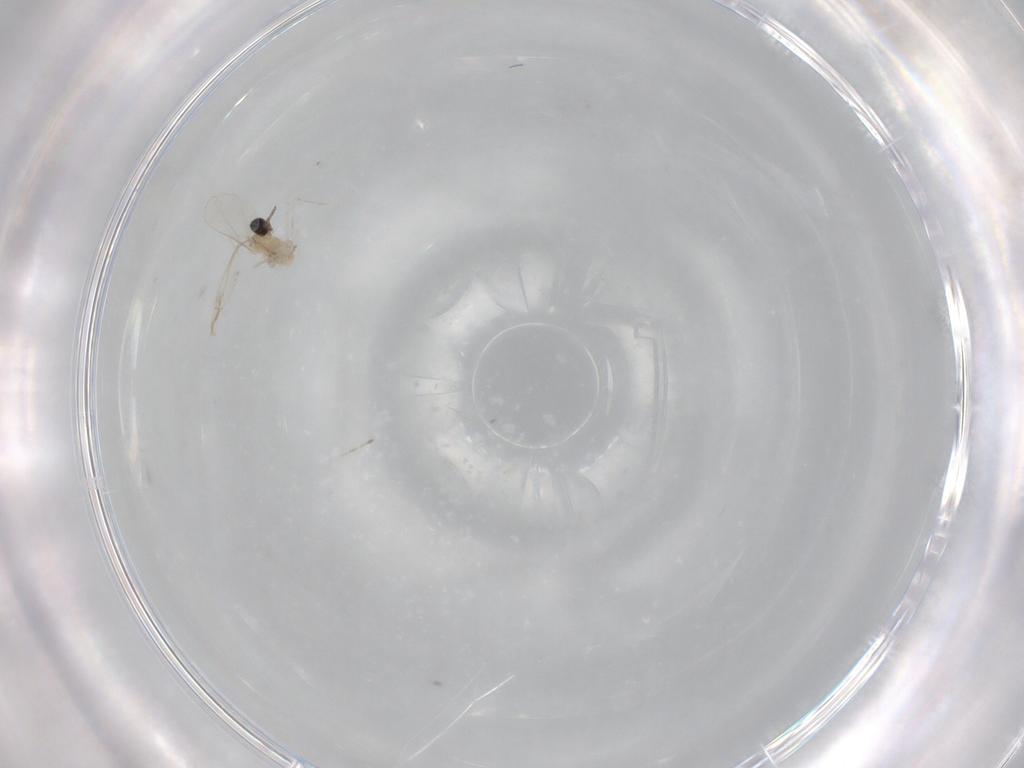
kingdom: Animalia
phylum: Arthropoda
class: Insecta
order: Diptera
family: Cecidomyiidae
